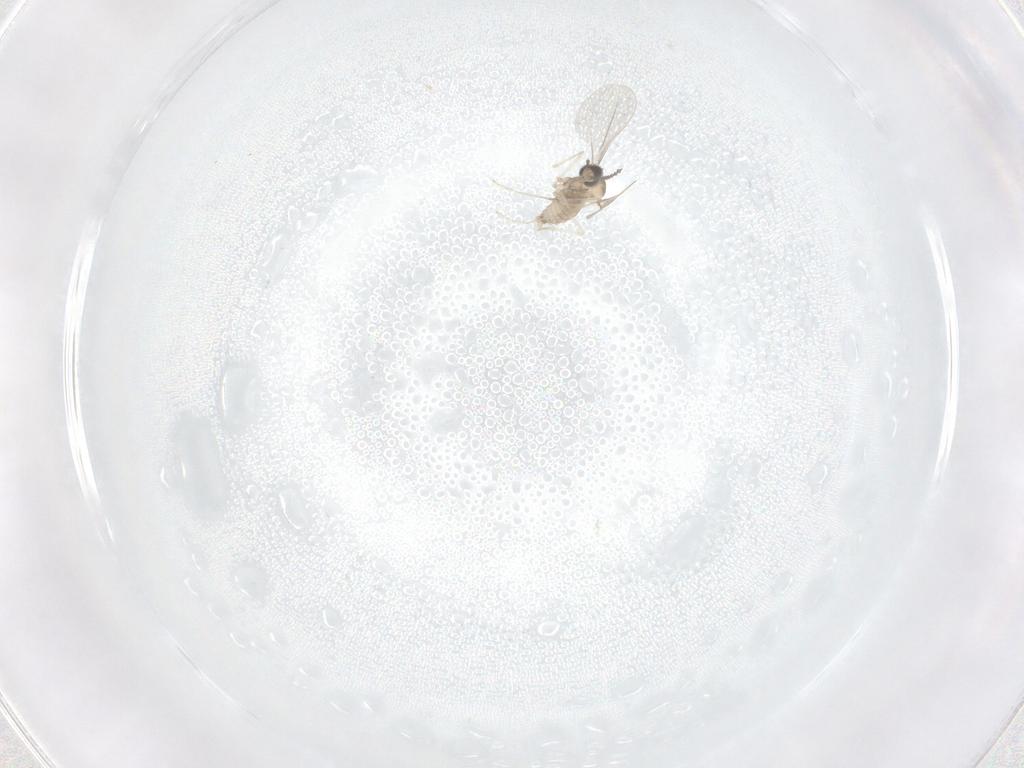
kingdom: Animalia
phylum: Arthropoda
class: Insecta
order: Diptera
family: Cecidomyiidae
